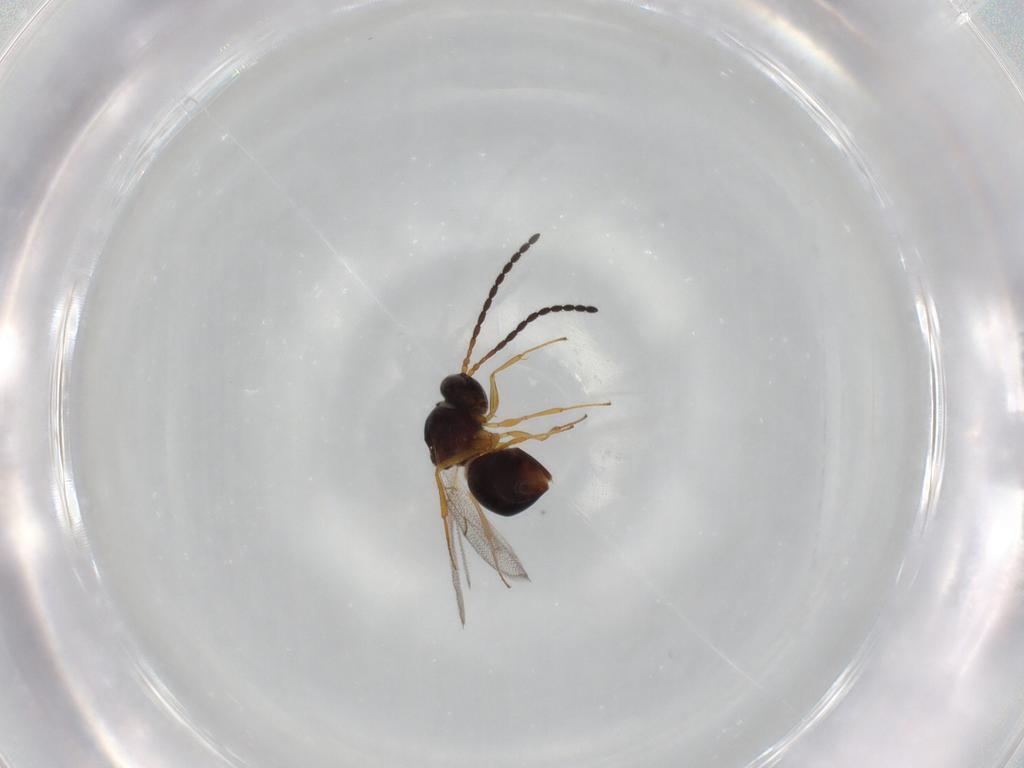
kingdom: Animalia
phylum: Arthropoda
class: Insecta
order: Hymenoptera
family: Figitidae
